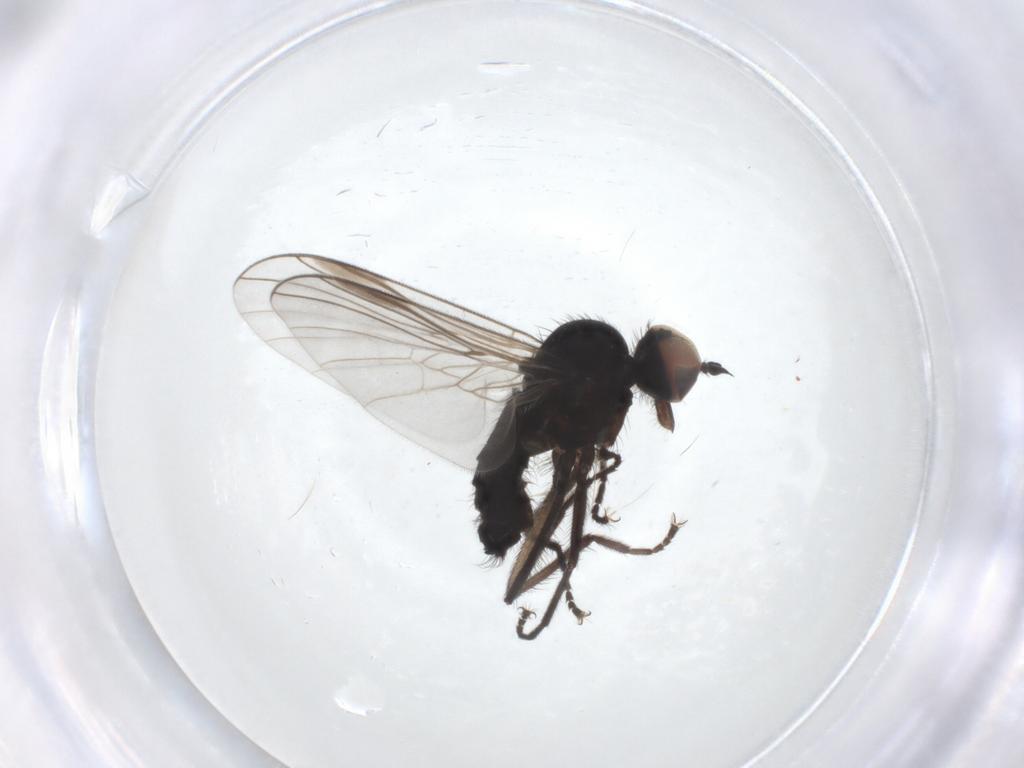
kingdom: Animalia
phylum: Arthropoda
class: Insecta
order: Diptera
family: Empididae
